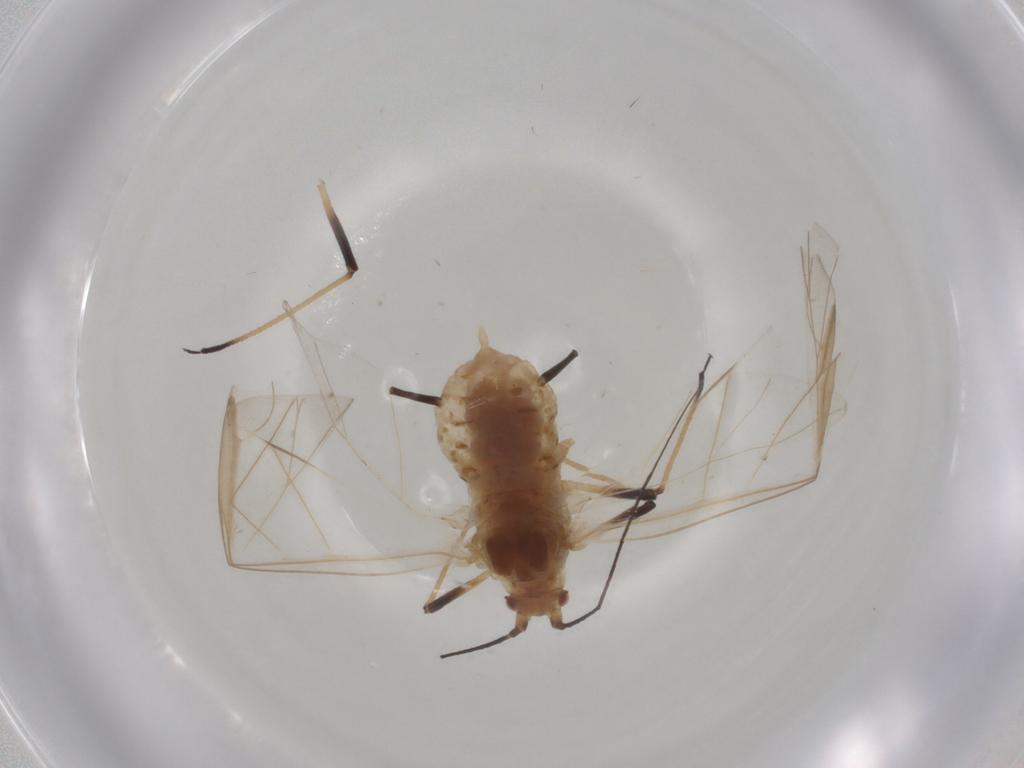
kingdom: Animalia
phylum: Arthropoda
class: Insecta
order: Hemiptera
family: Aphididae
